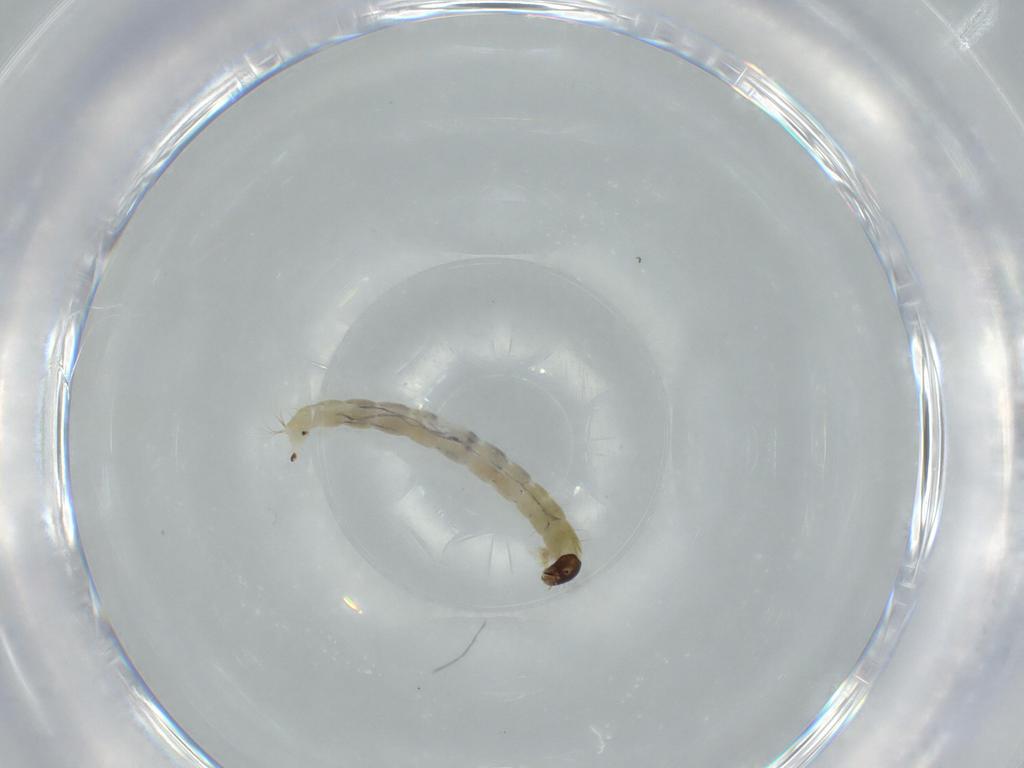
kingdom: Animalia
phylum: Arthropoda
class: Insecta
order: Diptera
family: Chironomidae
